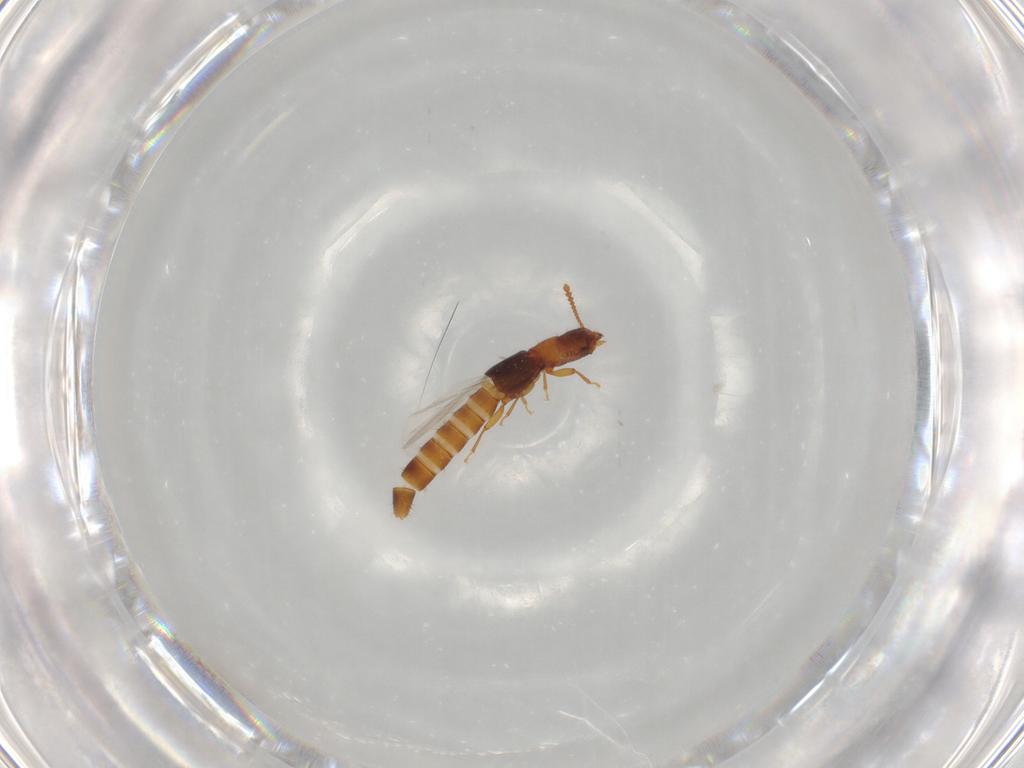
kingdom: Animalia
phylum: Arthropoda
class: Insecta
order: Coleoptera
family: Staphylinidae
